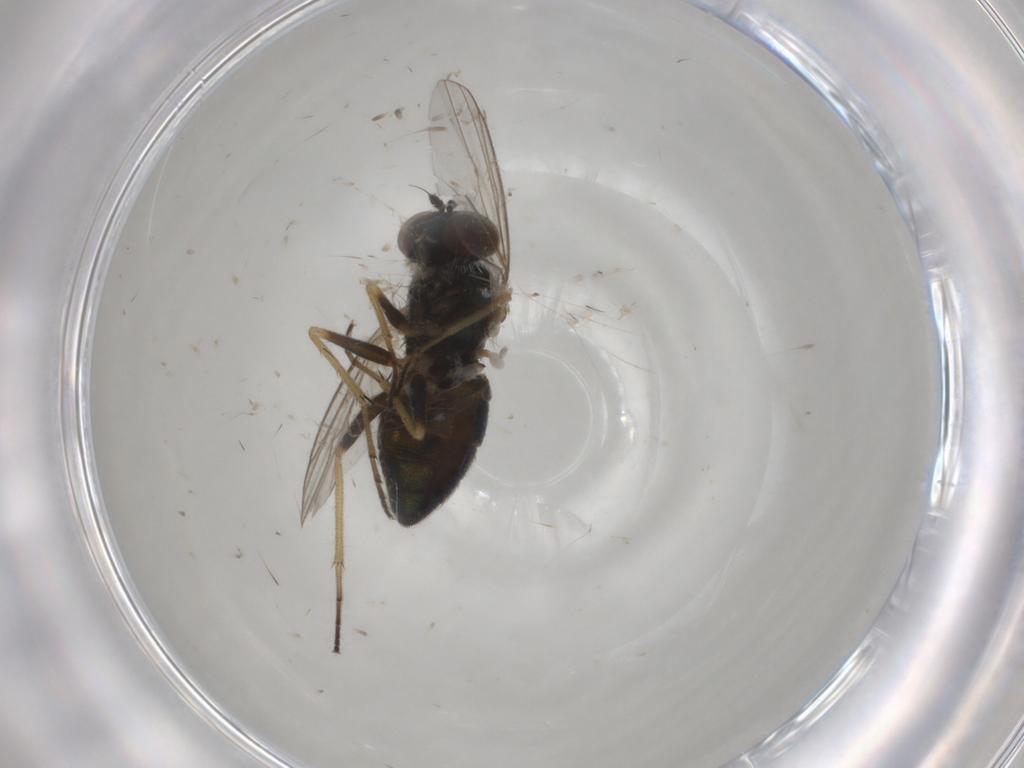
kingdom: Animalia
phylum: Arthropoda
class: Insecta
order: Diptera
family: Ephydridae
